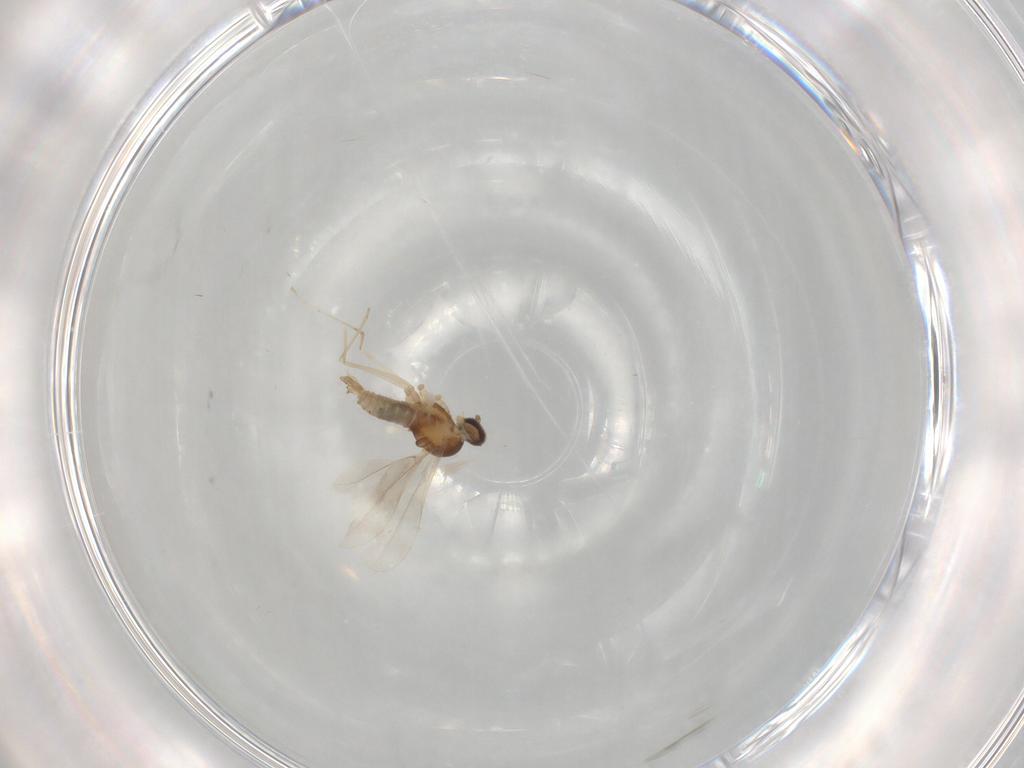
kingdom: Animalia
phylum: Arthropoda
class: Insecta
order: Diptera
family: Cecidomyiidae
